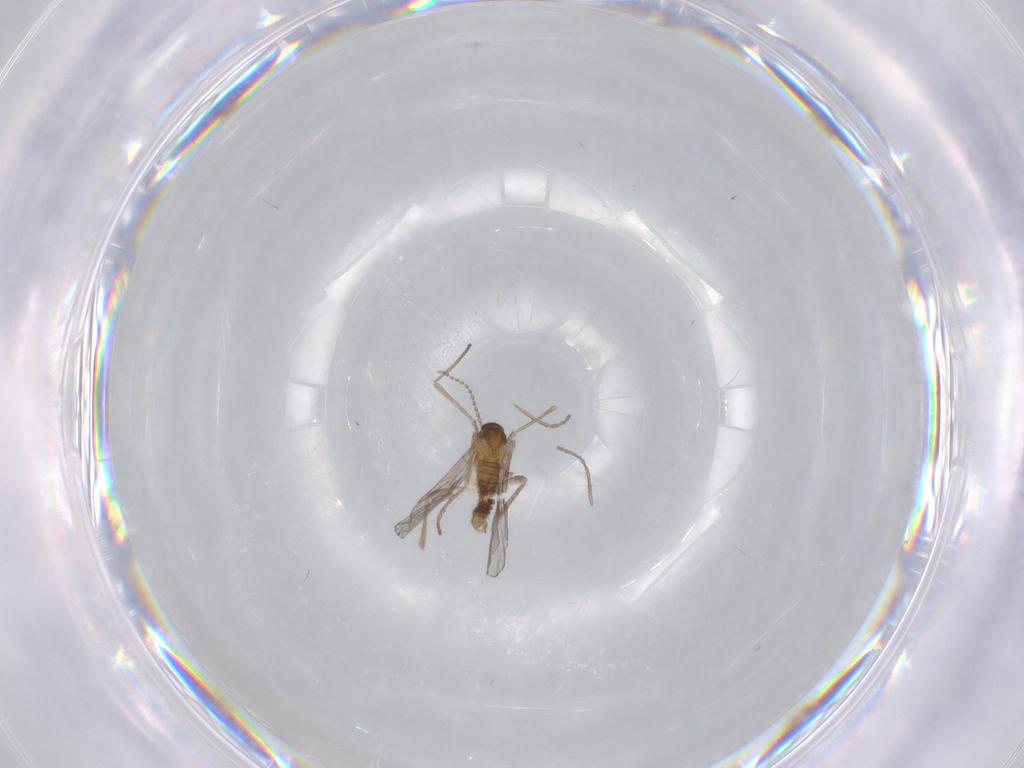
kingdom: Animalia
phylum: Arthropoda
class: Insecta
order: Diptera
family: Cecidomyiidae
